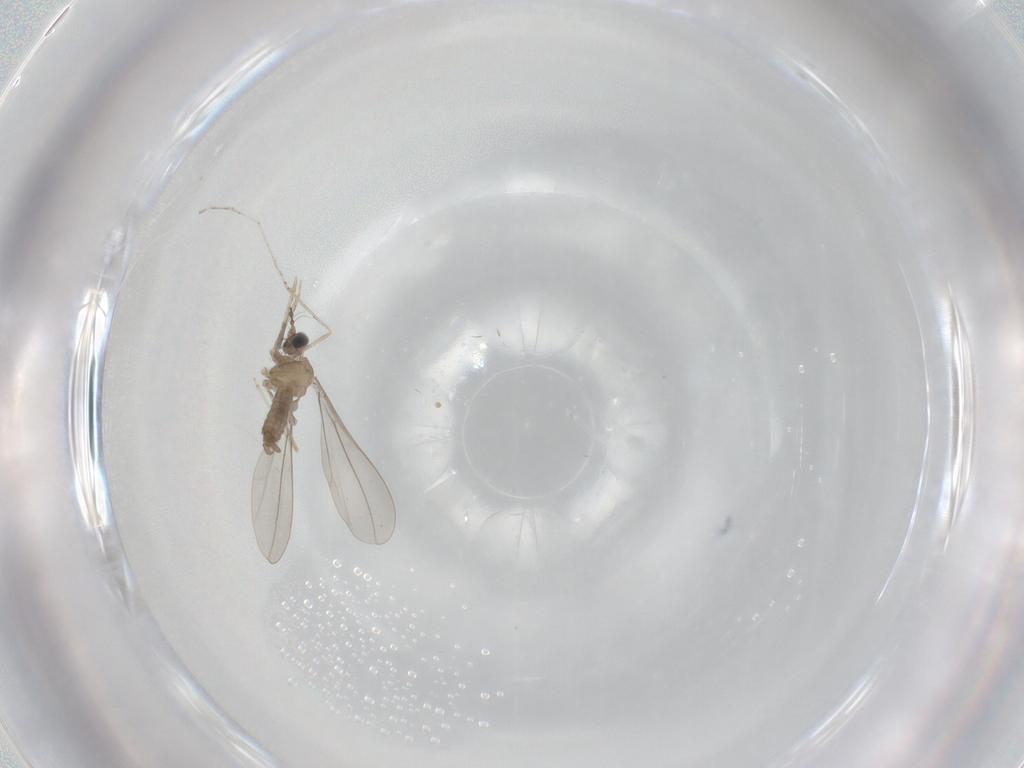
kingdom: Animalia
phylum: Arthropoda
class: Insecta
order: Diptera
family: Cecidomyiidae
